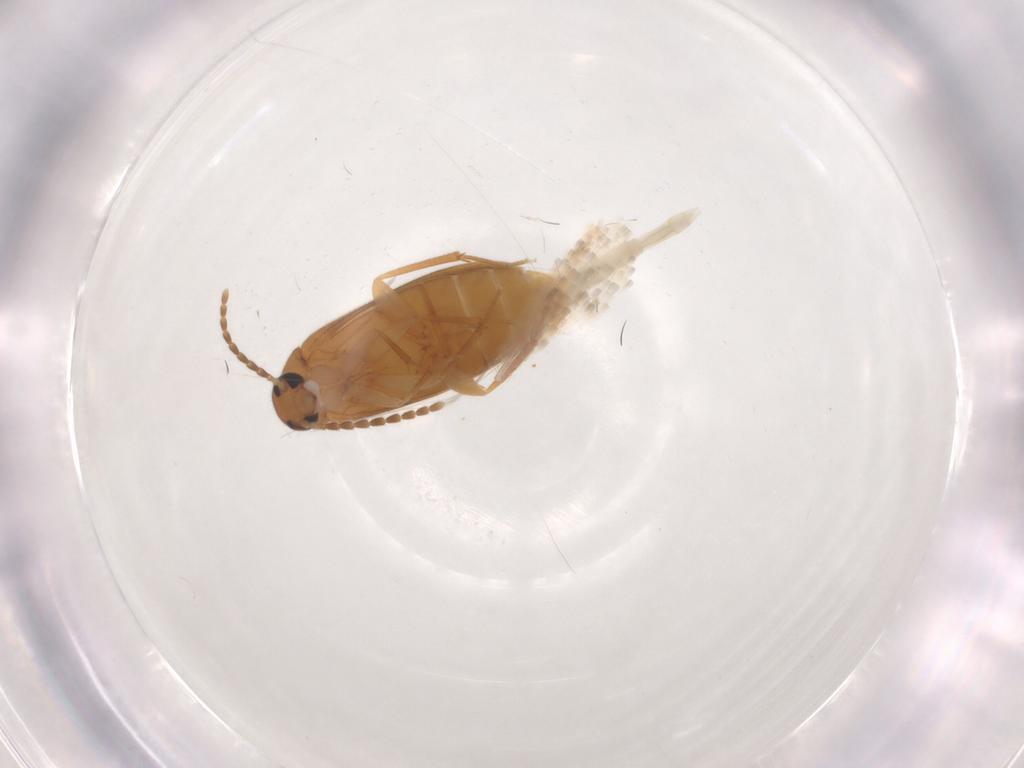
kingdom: Animalia
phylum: Arthropoda
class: Insecta
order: Coleoptera
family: Scraptiidae
